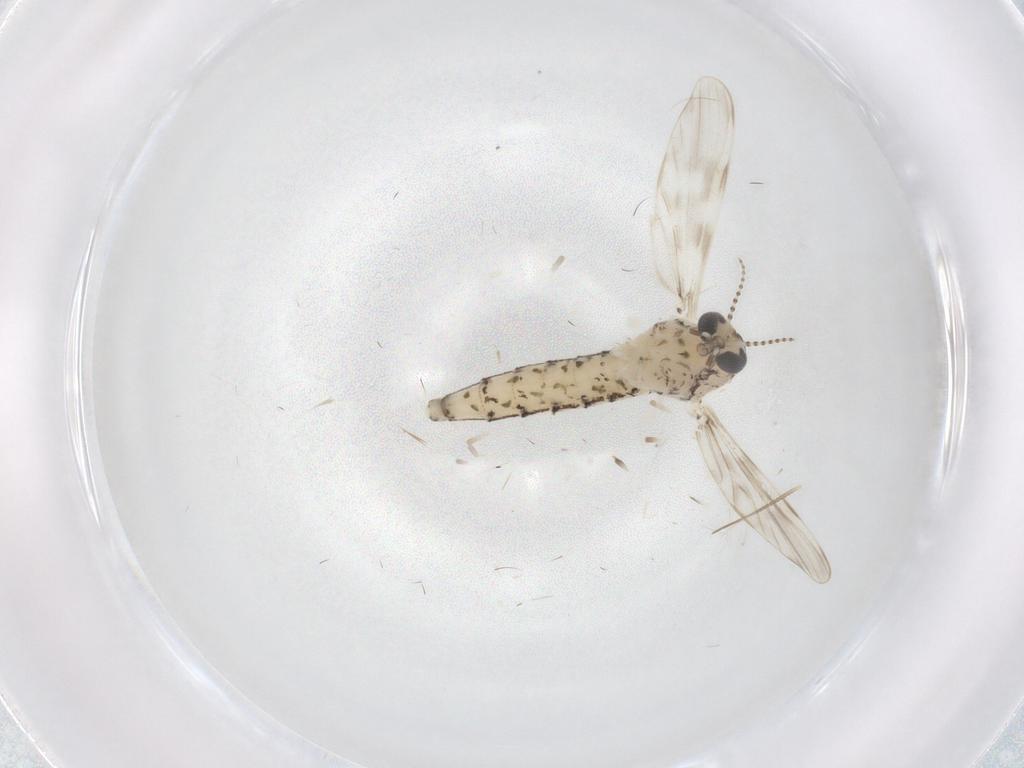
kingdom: Animalia
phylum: Arthropoda
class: Insecta
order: Diptera
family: Chaoboridae
